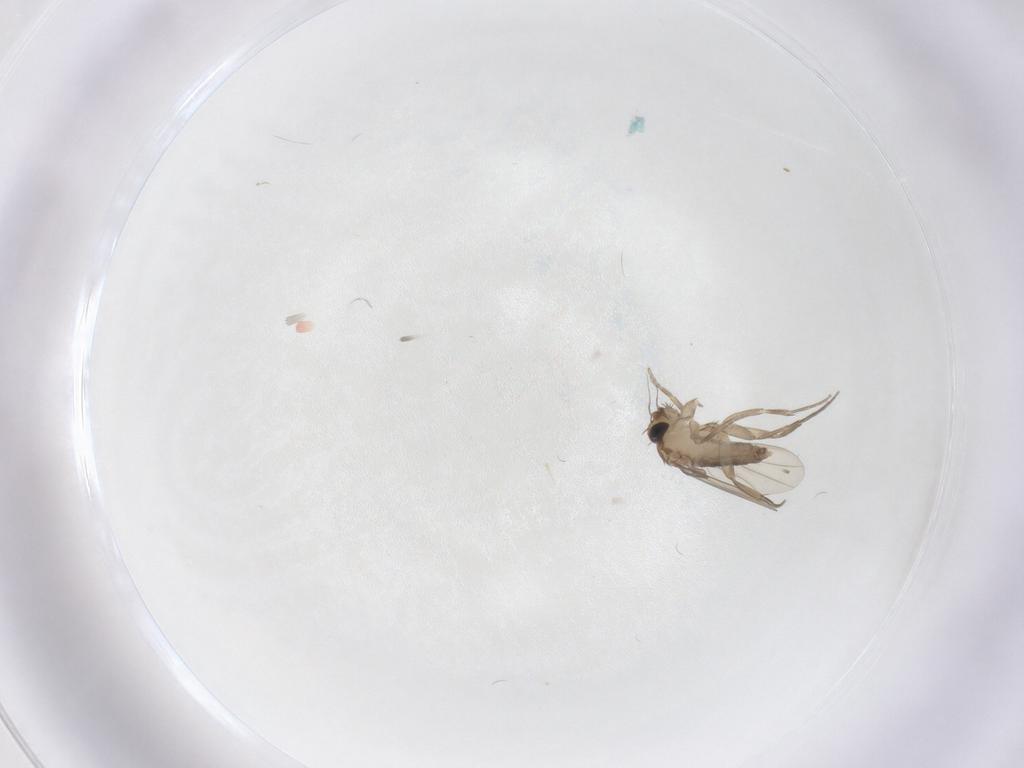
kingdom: Animalia
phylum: Arthropoda
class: Insecta
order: Diptera
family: Phoridae
